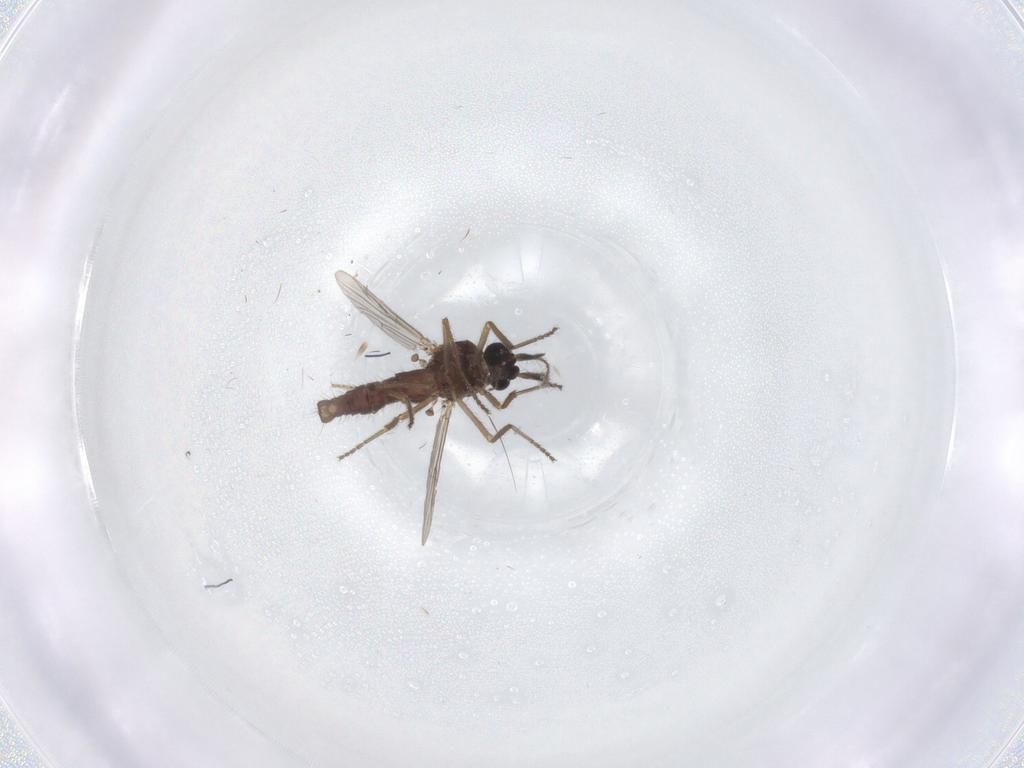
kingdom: Animalia
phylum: Arthropoda
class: Insecta
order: Diptera
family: Ceratopogonidae
